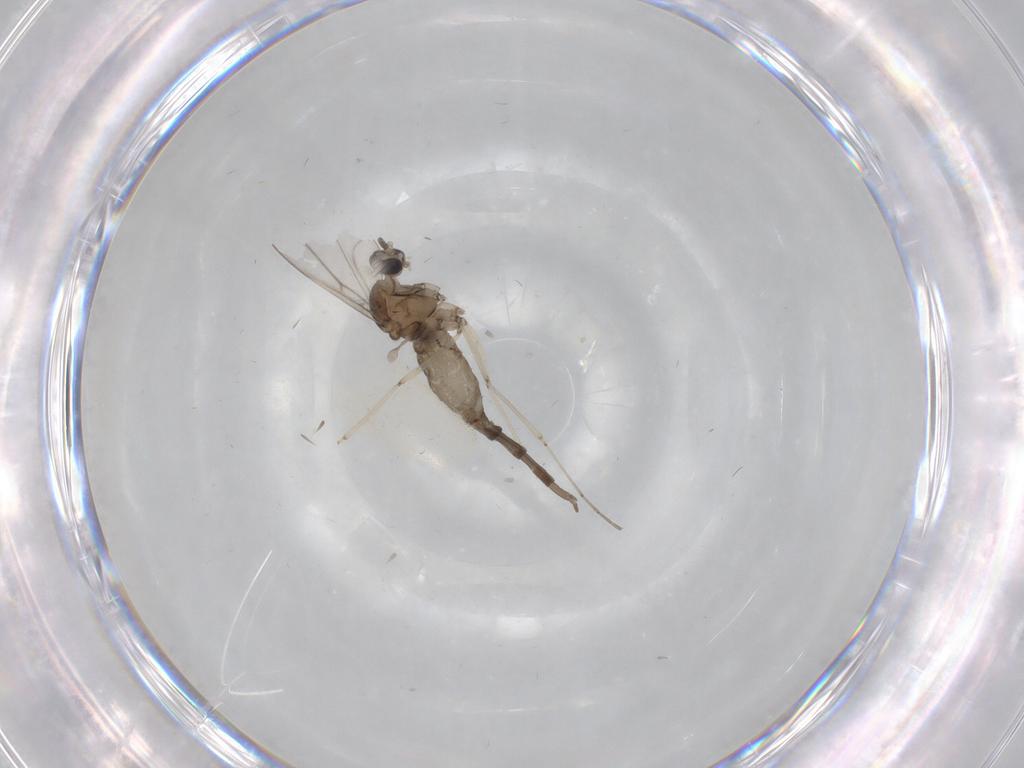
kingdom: Animalia
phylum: Arthropoda
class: Insecta
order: Diptera
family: Cecidomyiidae
